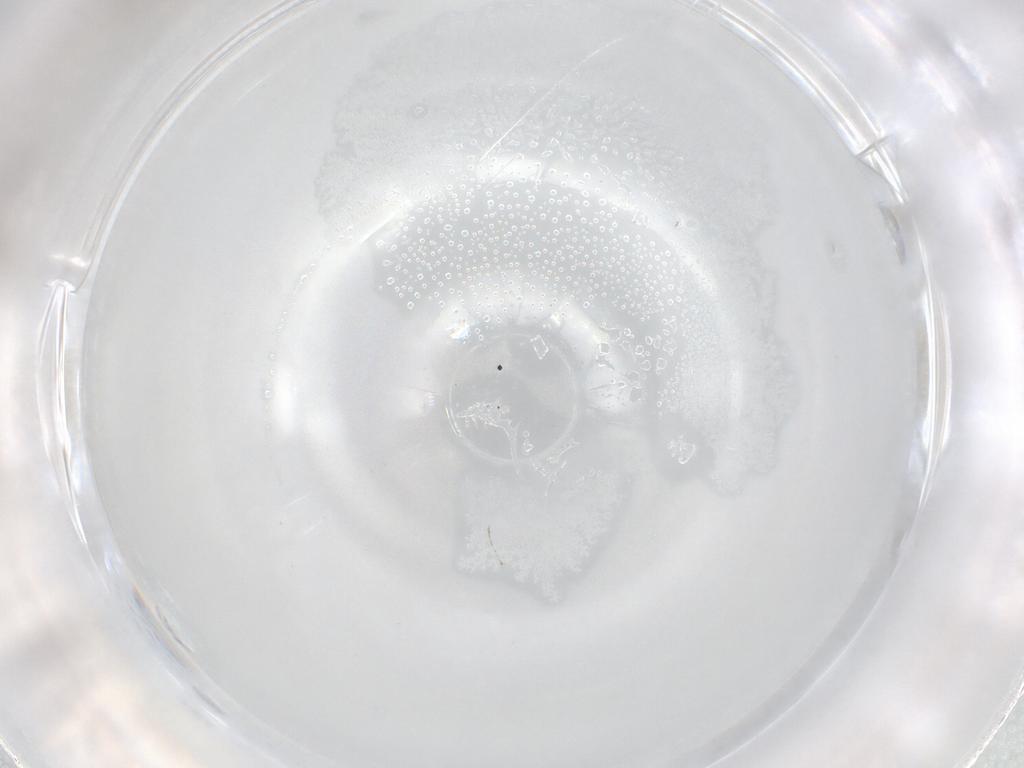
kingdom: Animalia
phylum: Arthropoda
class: Insecta
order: Diptera
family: Cecidomyiidae
